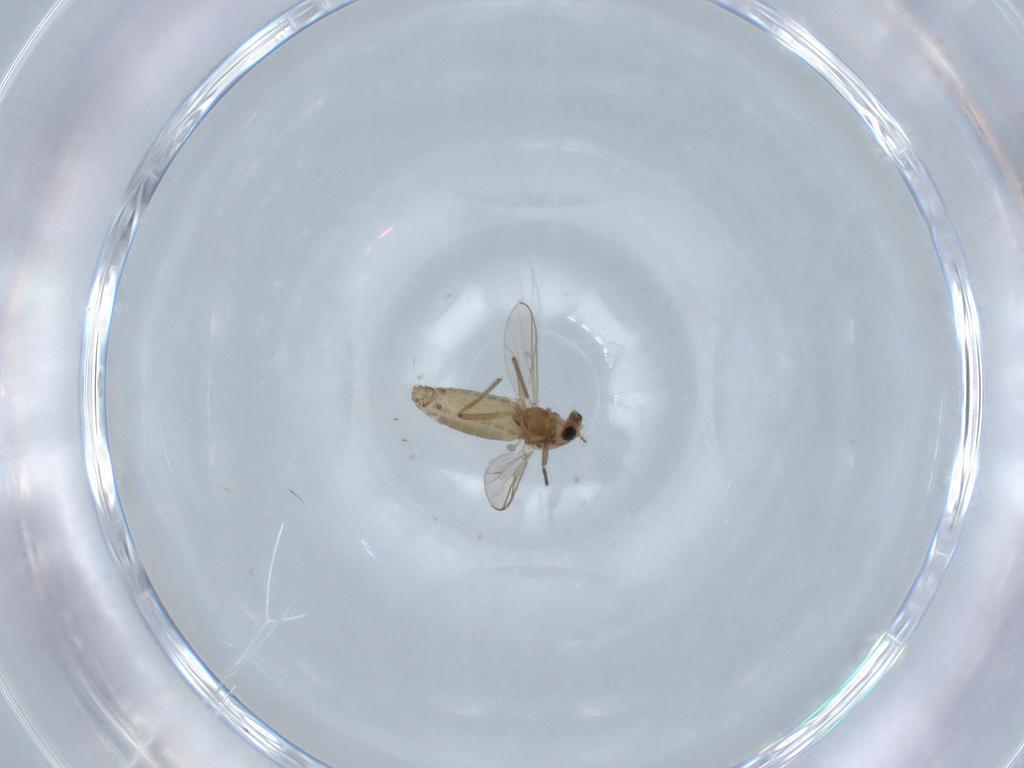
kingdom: Animalia
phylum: Arthropoda
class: Insecta
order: Diptera
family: Chironomidae
